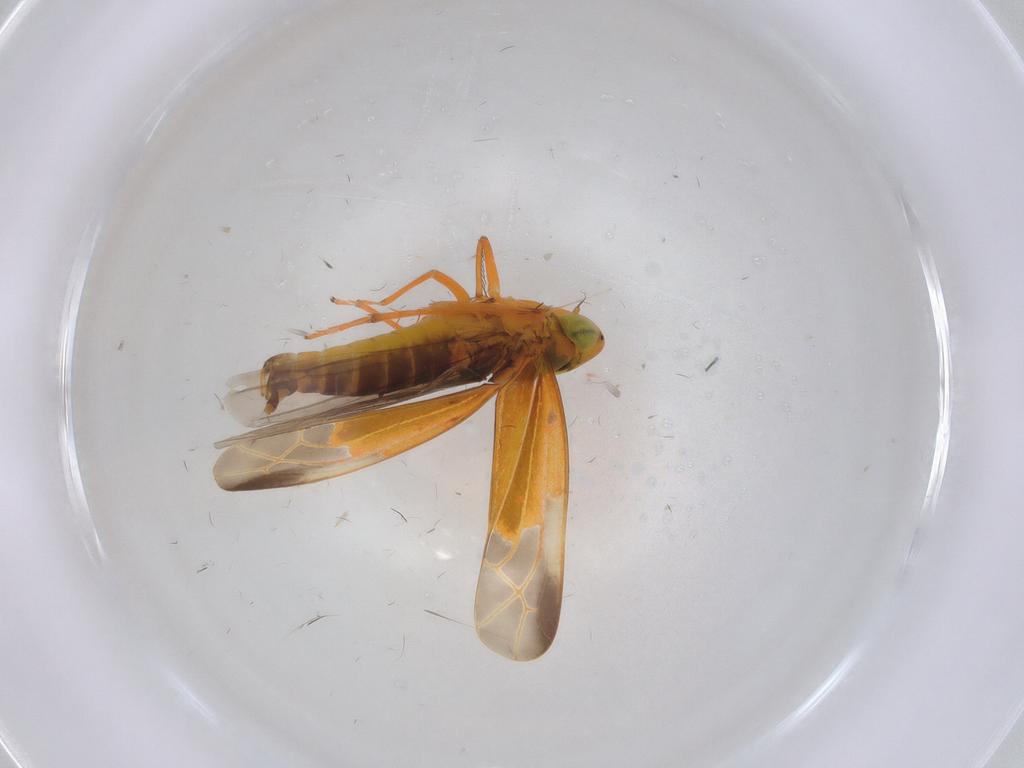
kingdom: Animalia
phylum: Arthropoda
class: Insecta
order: Hemiptera
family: Cicadellidae
